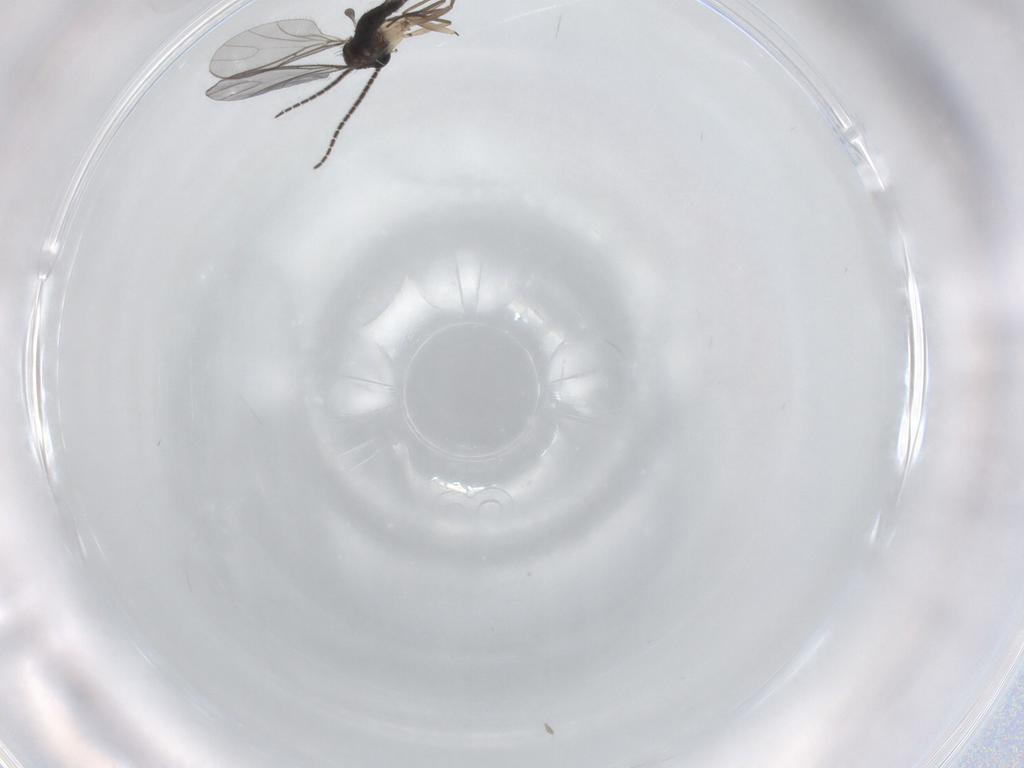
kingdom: Animalia
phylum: Arthropoda
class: Insecta
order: Diptera
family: Sciaridae
